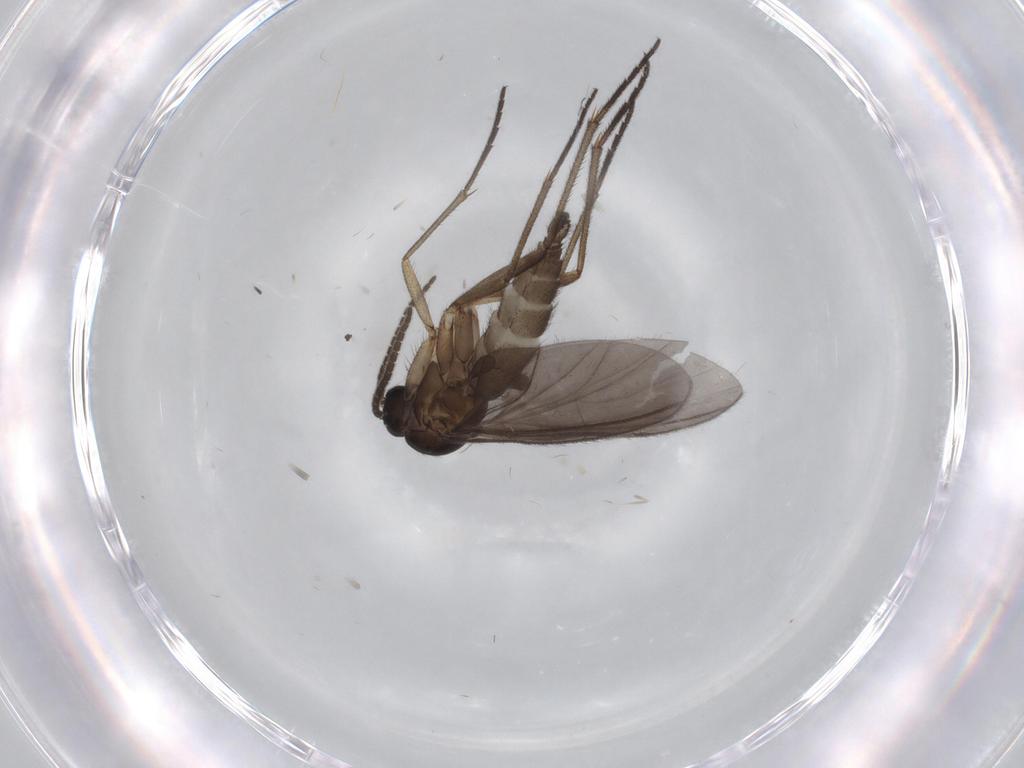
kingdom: Animalia
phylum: Arthropoda
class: Insecta
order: Diptera
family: Sciaridae
